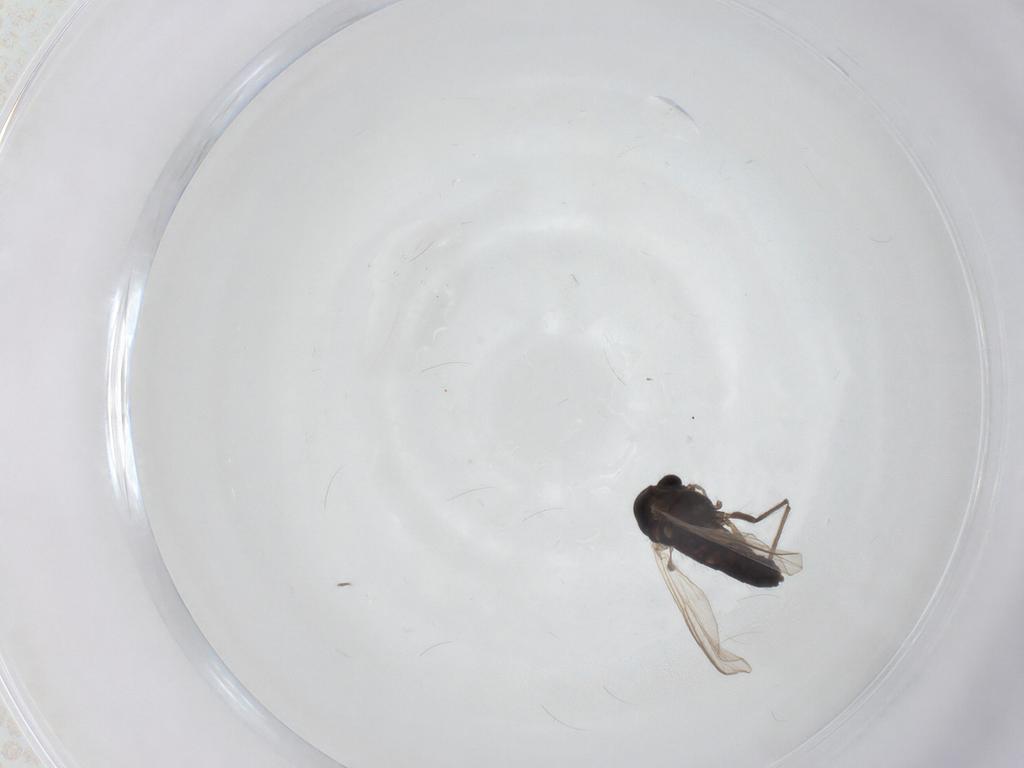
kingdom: Animalia
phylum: Arthropoda
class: Insecta
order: Diptera
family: Chironomidae
